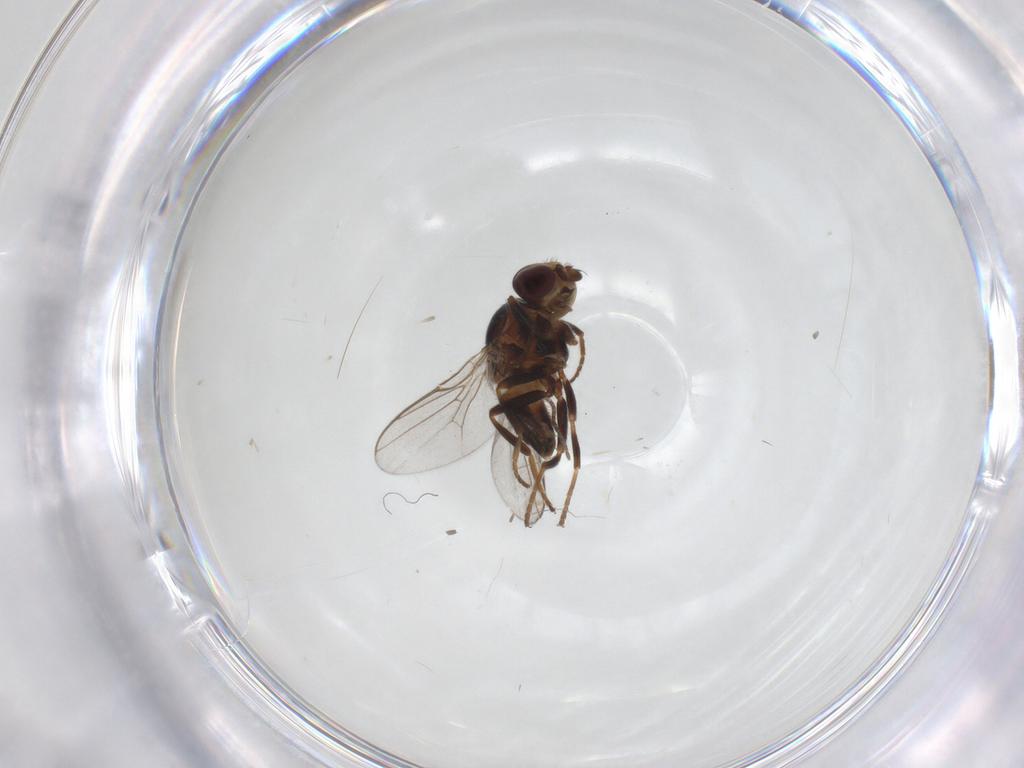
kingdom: Animalia
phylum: Arthropoda
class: Insecta
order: Diptera
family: Chloropidae
